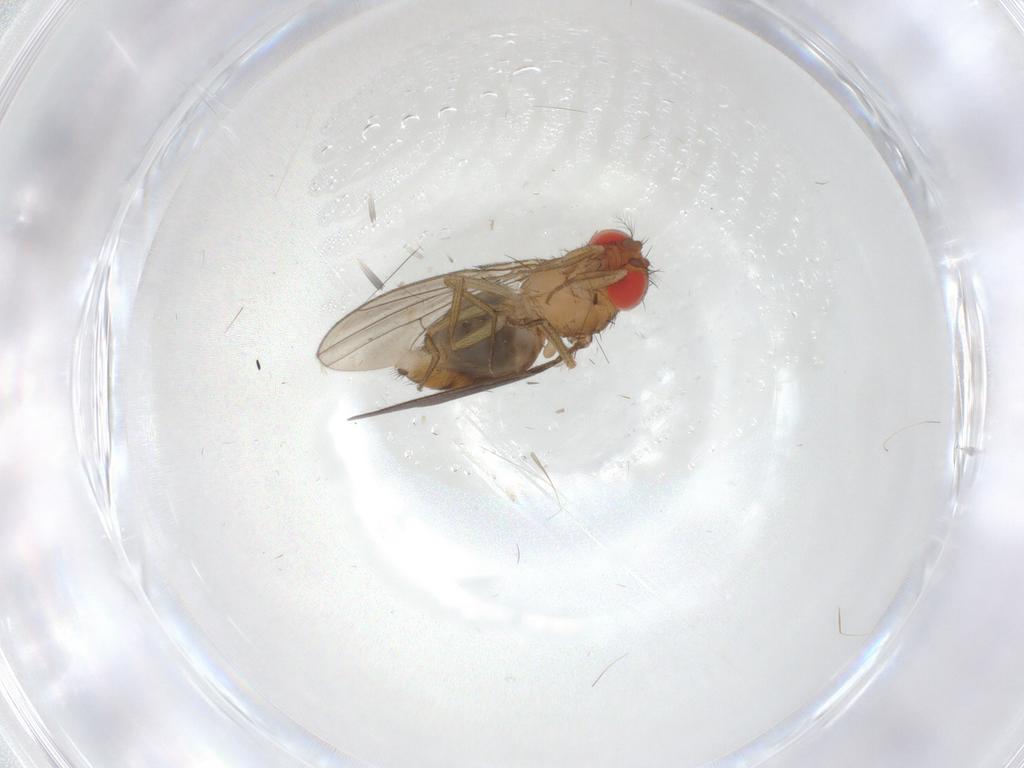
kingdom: Animalia
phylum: Arthropoda
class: Insecta
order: Diptera
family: Drosophilidae
